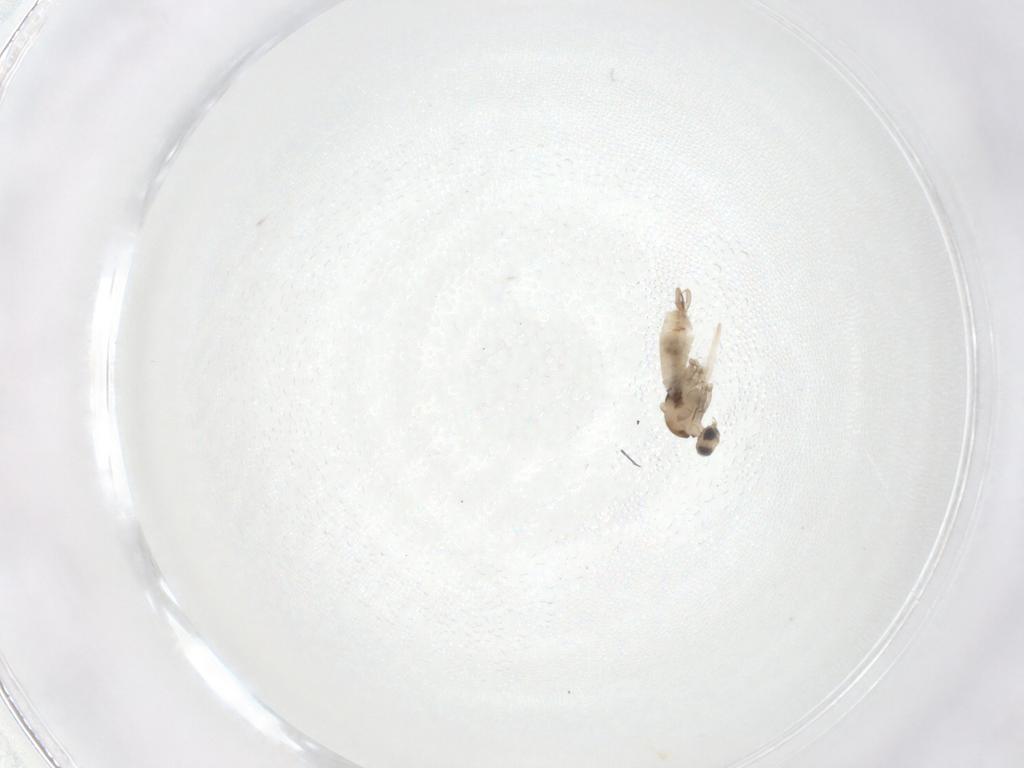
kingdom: Animalia
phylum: Arthropoda
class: Insecta
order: Diptera
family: Cecidomyiidae
